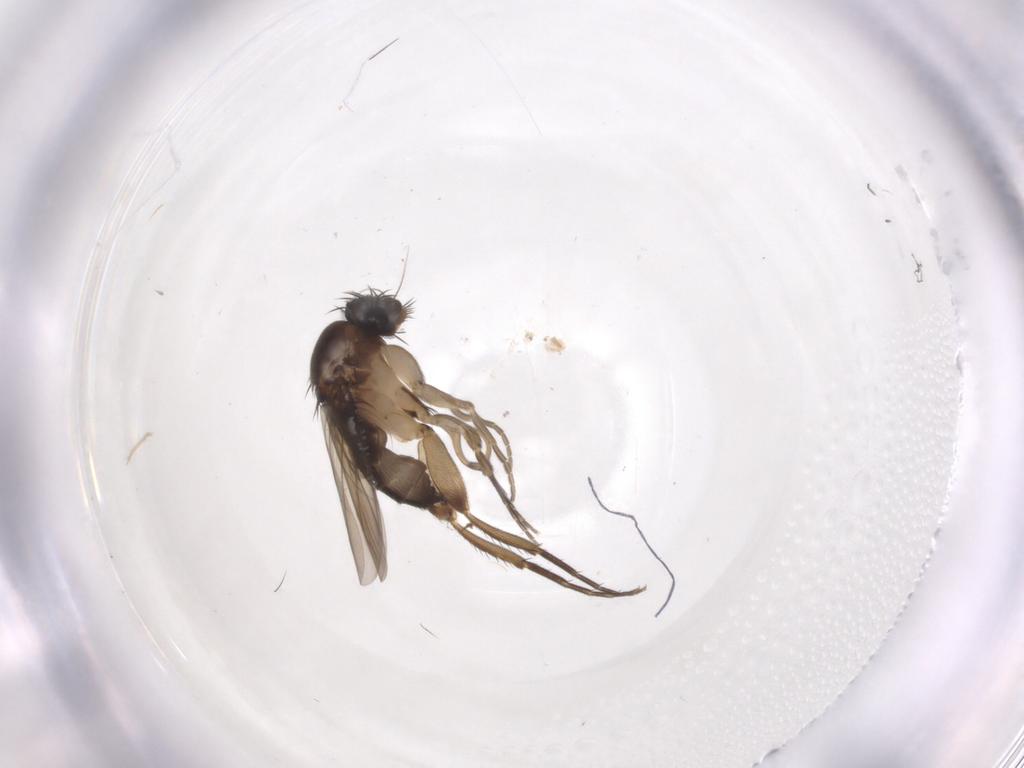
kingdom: Animalia
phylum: Arthropoda
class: Insecta
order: Diptera
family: Phoridae
